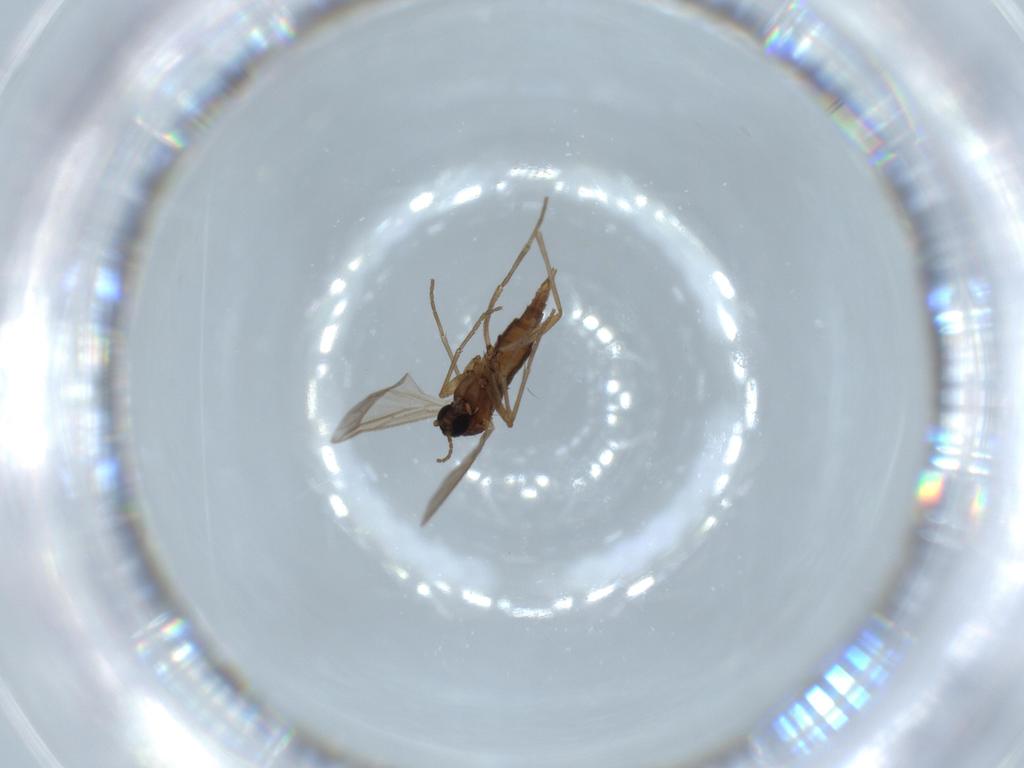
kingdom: Animalia
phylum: Arthropoda
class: Insecta
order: Diptera
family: Sciaridae
